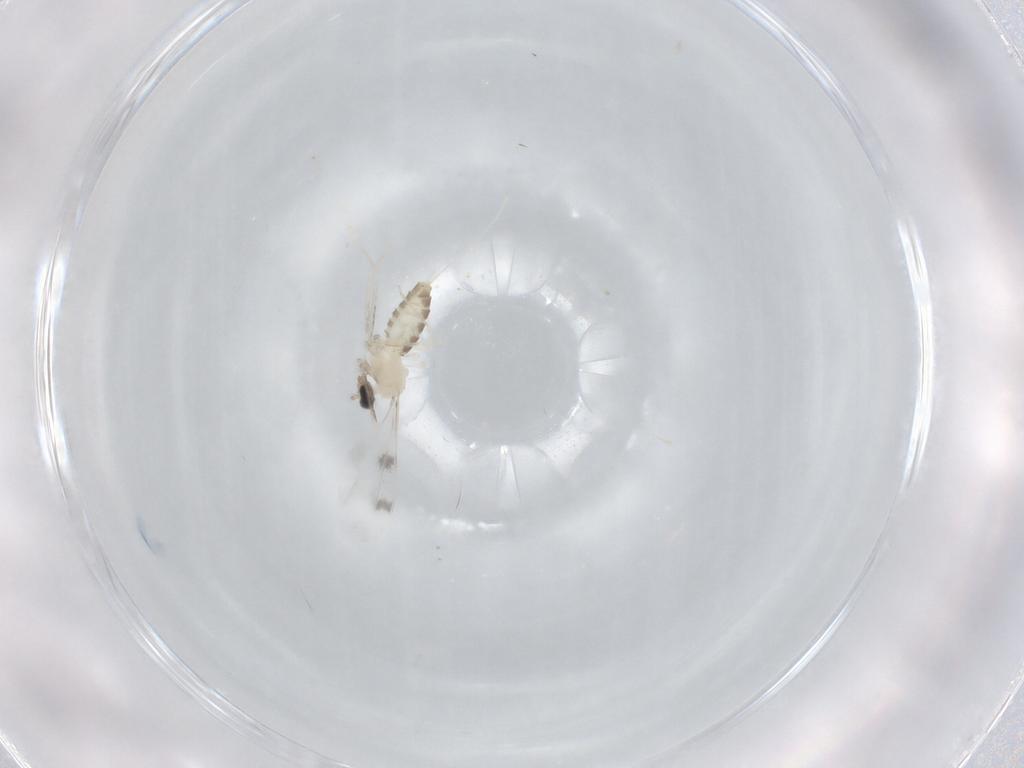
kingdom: Animalia
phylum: Arthropoda
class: Insecta
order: Diptera
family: Cecidomyiidae
